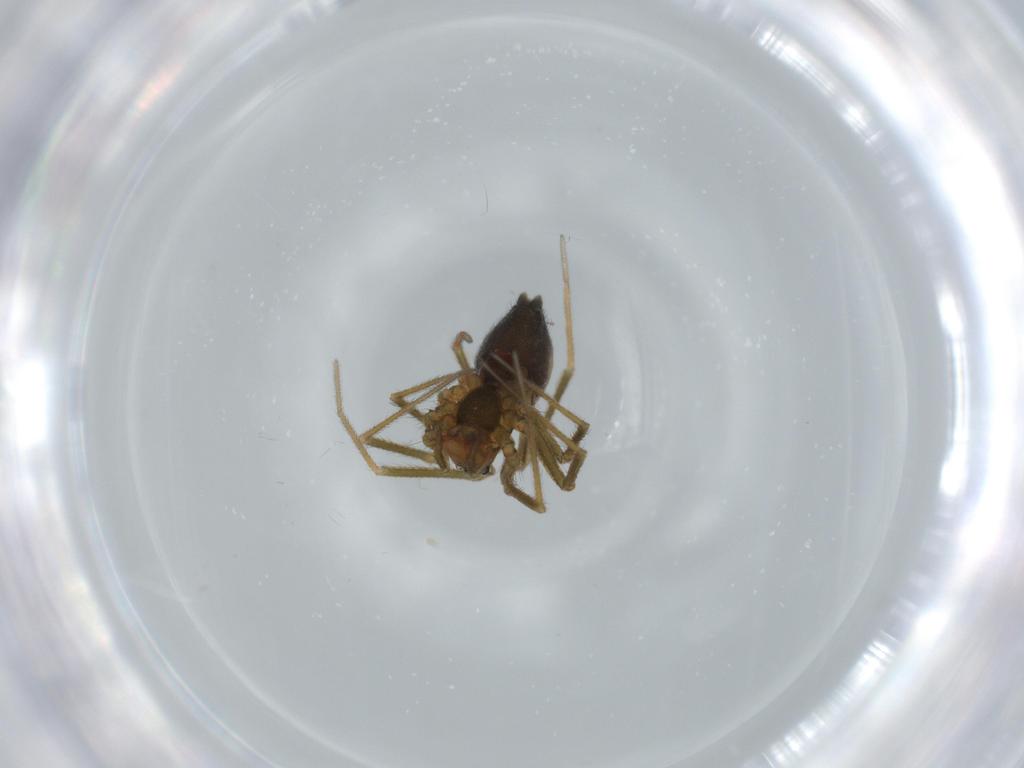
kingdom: Animalia
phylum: Arthropoda
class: Arachnida
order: Araneae
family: Linyphiidae
